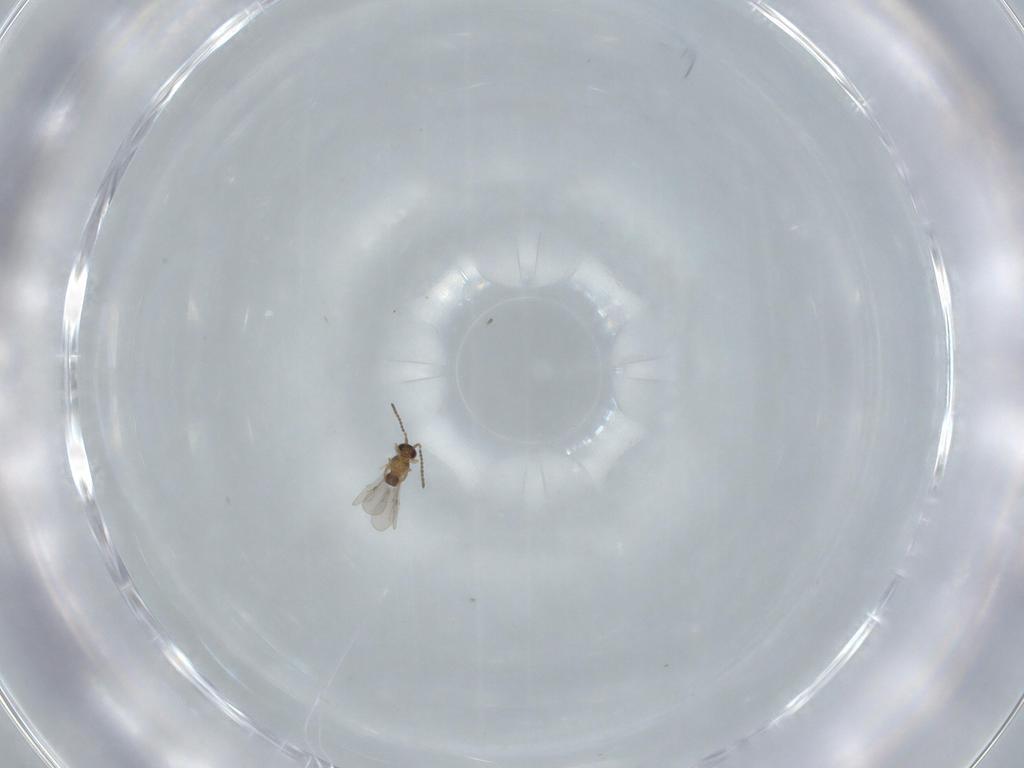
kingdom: Animalia
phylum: Arthropoda
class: Insecta
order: Hymenoptera
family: Ceraphronidae
